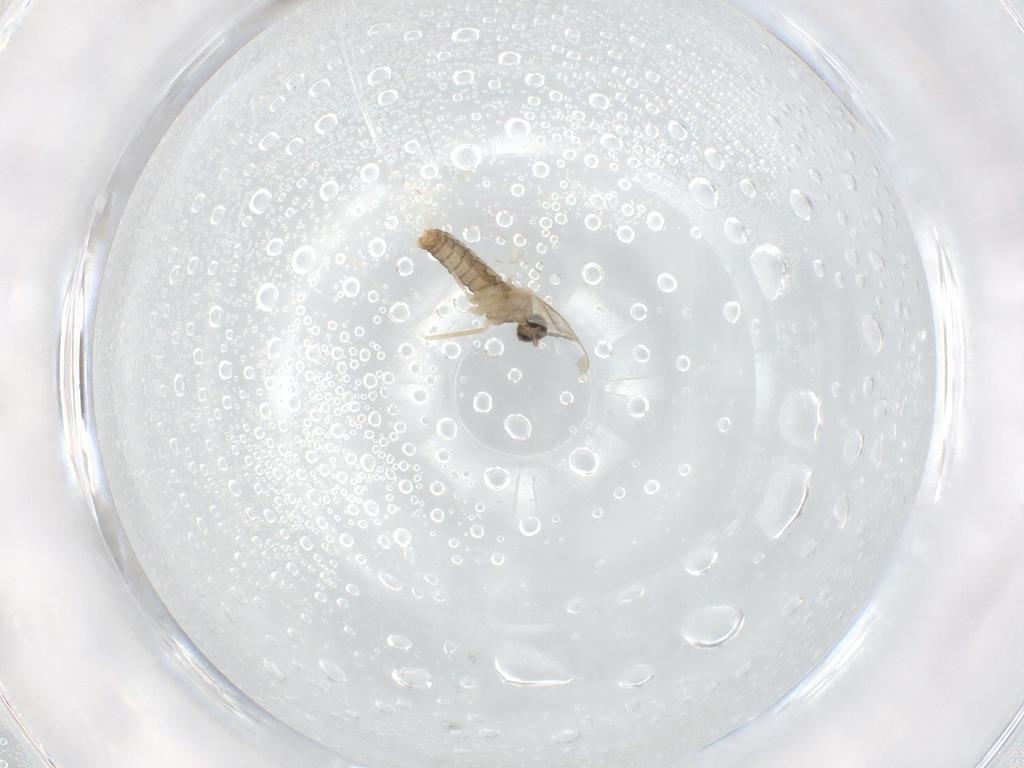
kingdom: Animalia
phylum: Arthropoda
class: Insecta
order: Diptera
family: Cecidomyiidae
